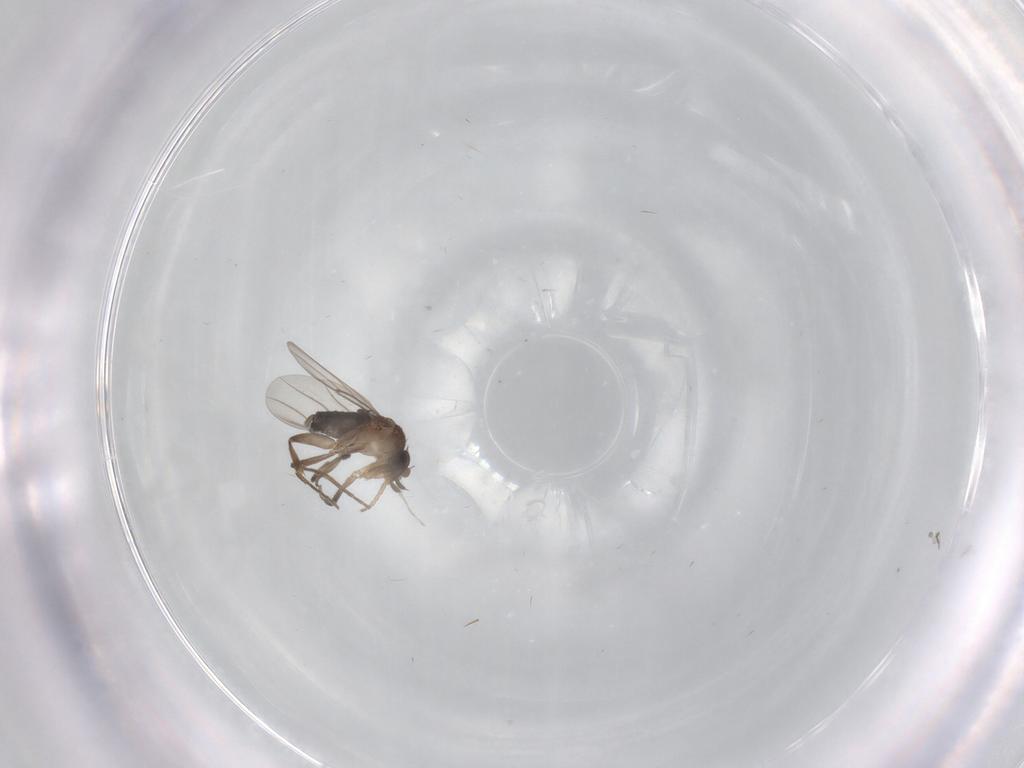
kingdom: Animalia
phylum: Arthropoda
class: Insecta
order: Diptera
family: Ceratopogonidae
